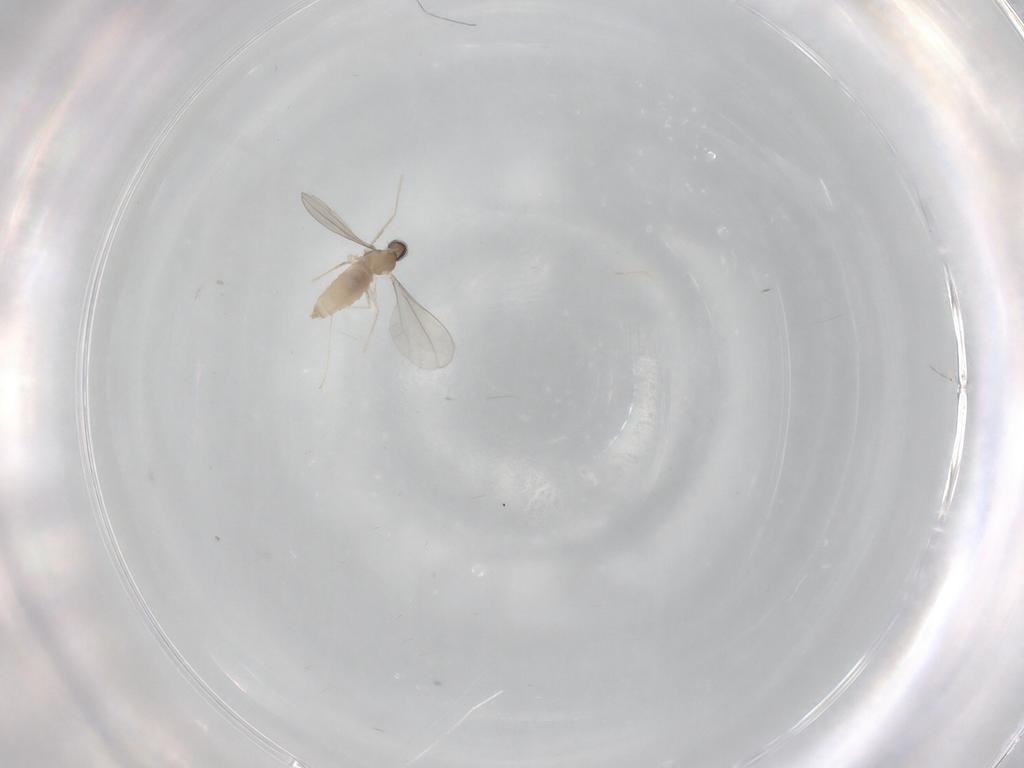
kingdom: Animalia
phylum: Arthropoda
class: Insecta
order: Diptera
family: Cecidomyiidae
